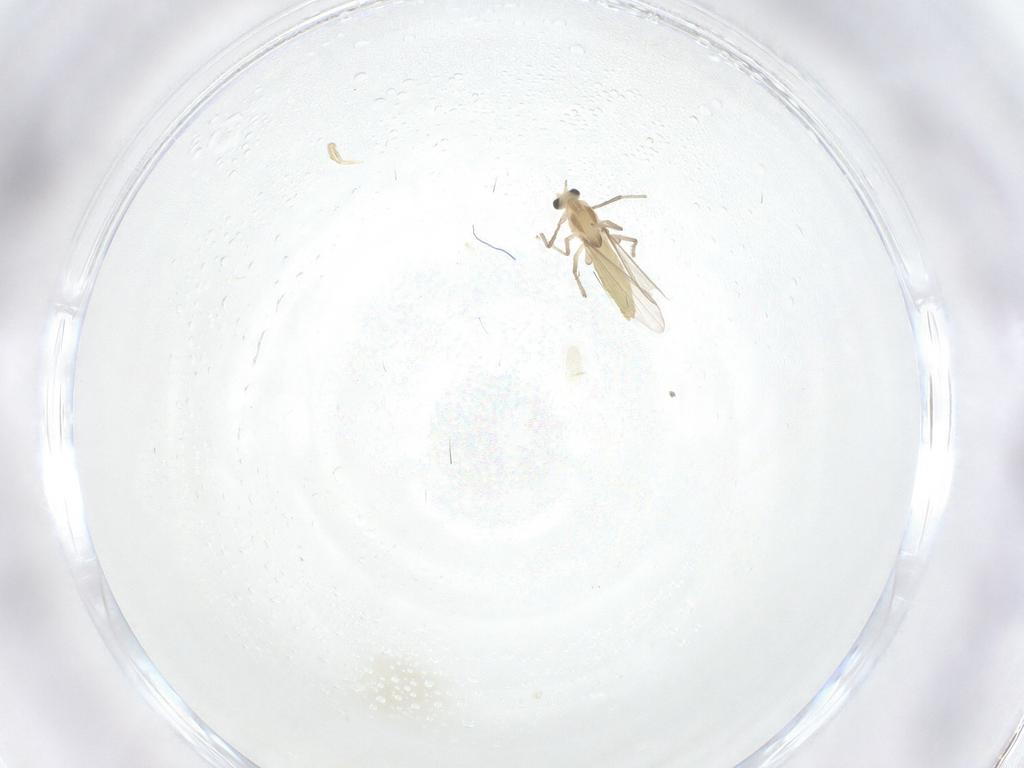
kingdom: Animalia
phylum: Arthropoda
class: Insecta
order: Diptera
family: Chironomidae
